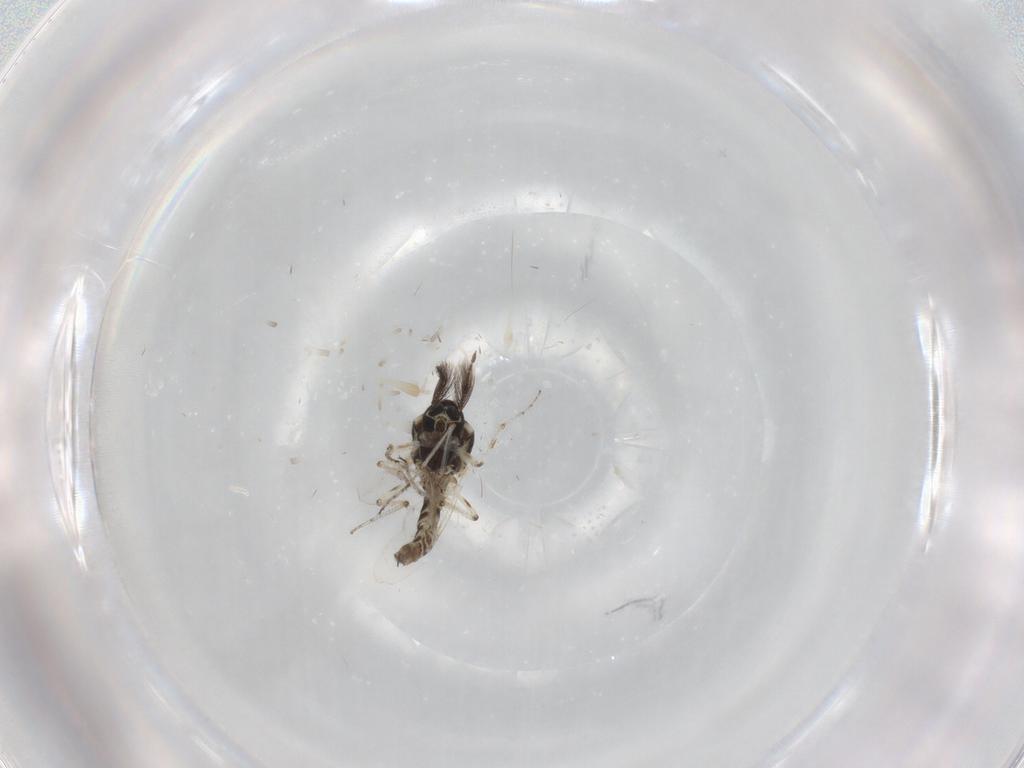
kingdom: Animalia
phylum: Arthropoda
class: Insecta
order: Diptera
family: Ceratopogonidae
